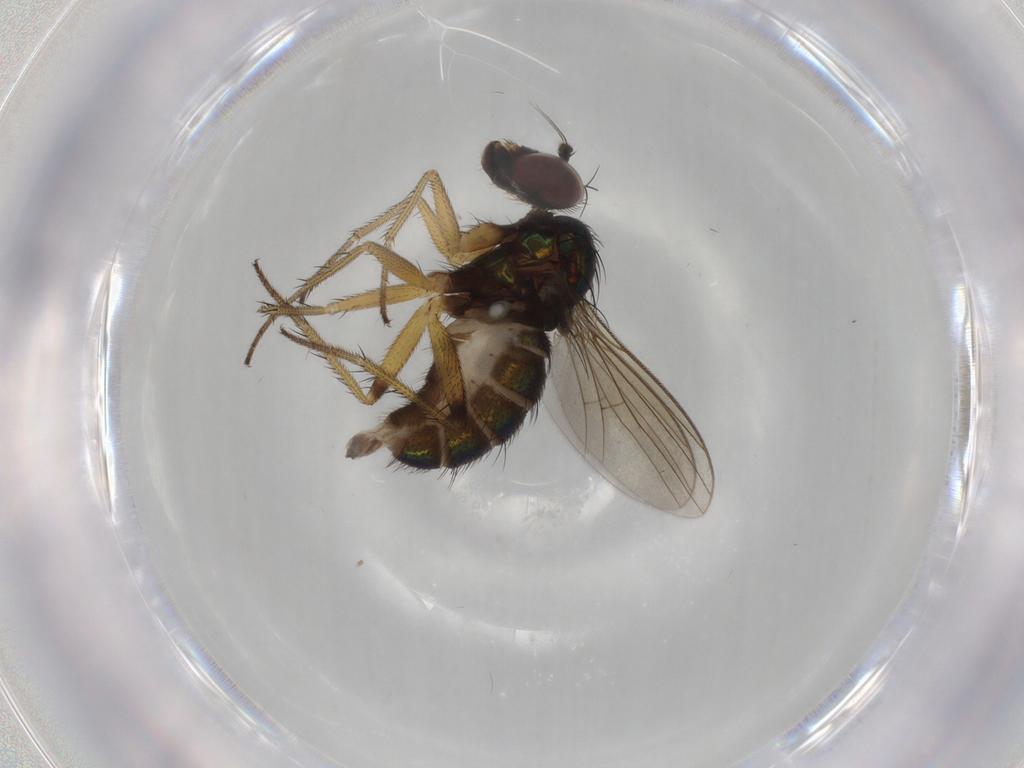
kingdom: Animalia
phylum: Arthropoda
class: Insecta
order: Diptera
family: Dolichopodidae
